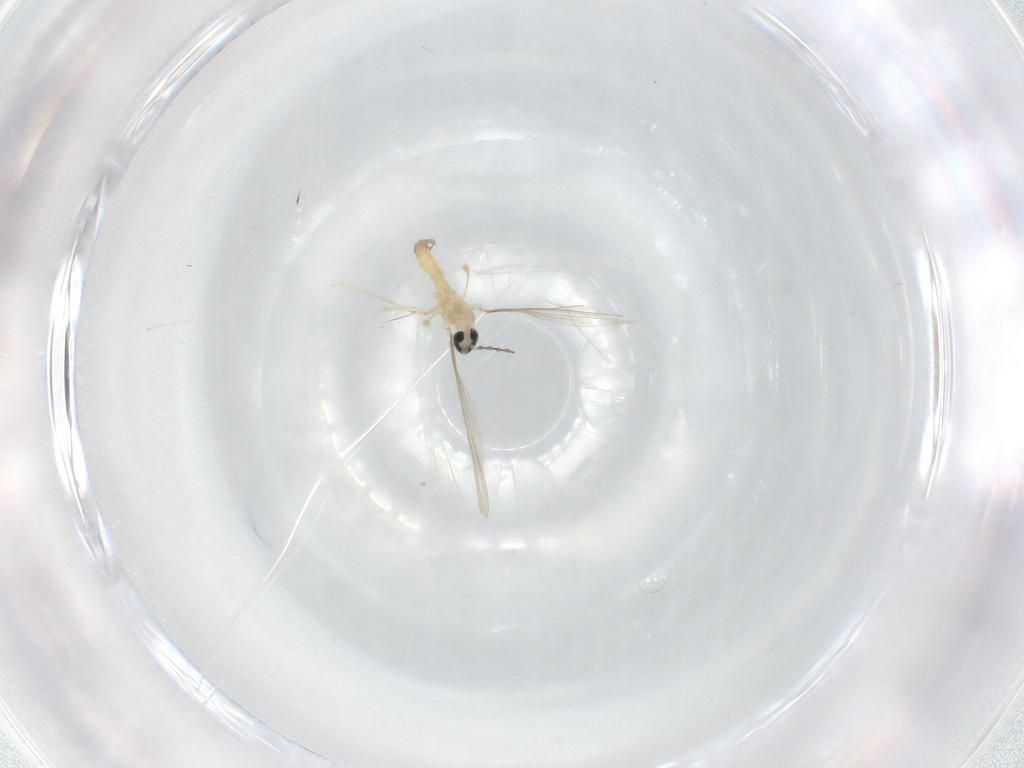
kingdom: Animalia
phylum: Arthropoda
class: Insecta
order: Diptera
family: Cecidomyiidae
